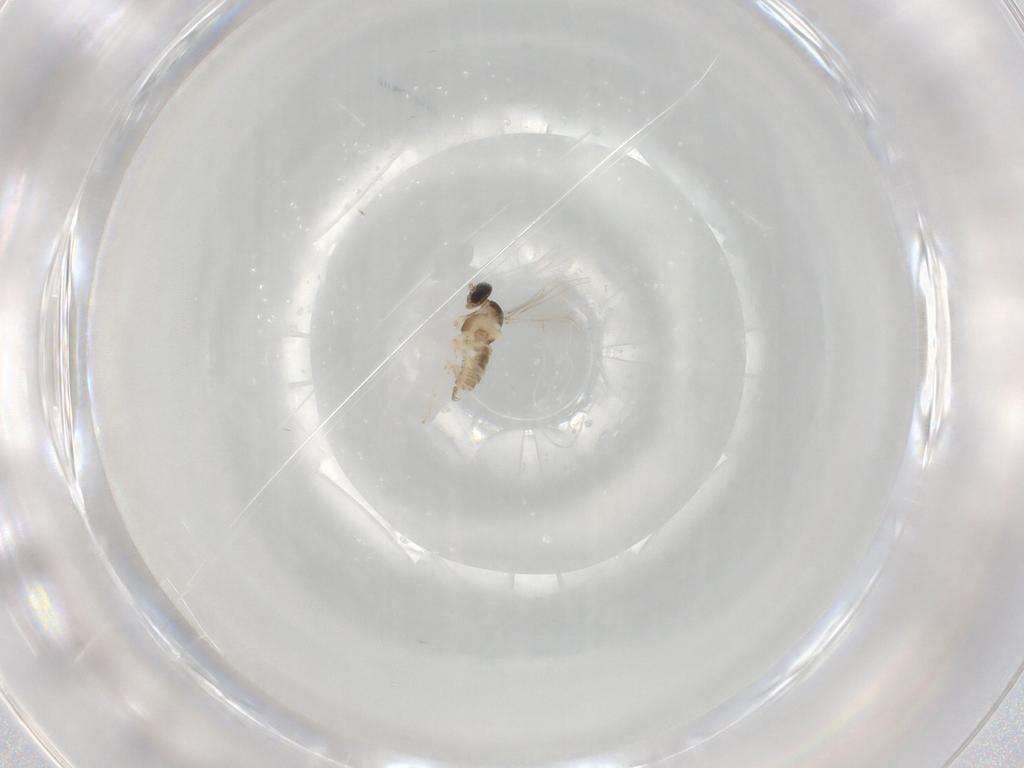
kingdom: Animalia
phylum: Arthropoda
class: Insecta
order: Diptera
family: Cecidomyiidae
